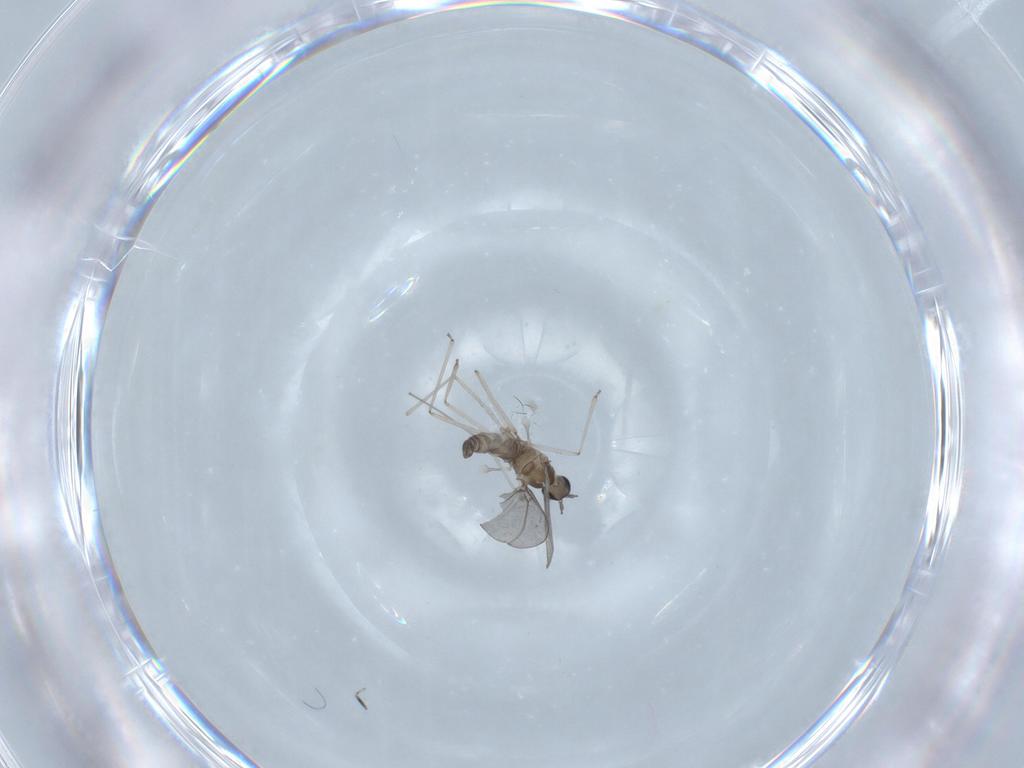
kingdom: Animalia
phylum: Arthropoda
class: Insecta
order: Diptera
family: Cecidomyiidae
